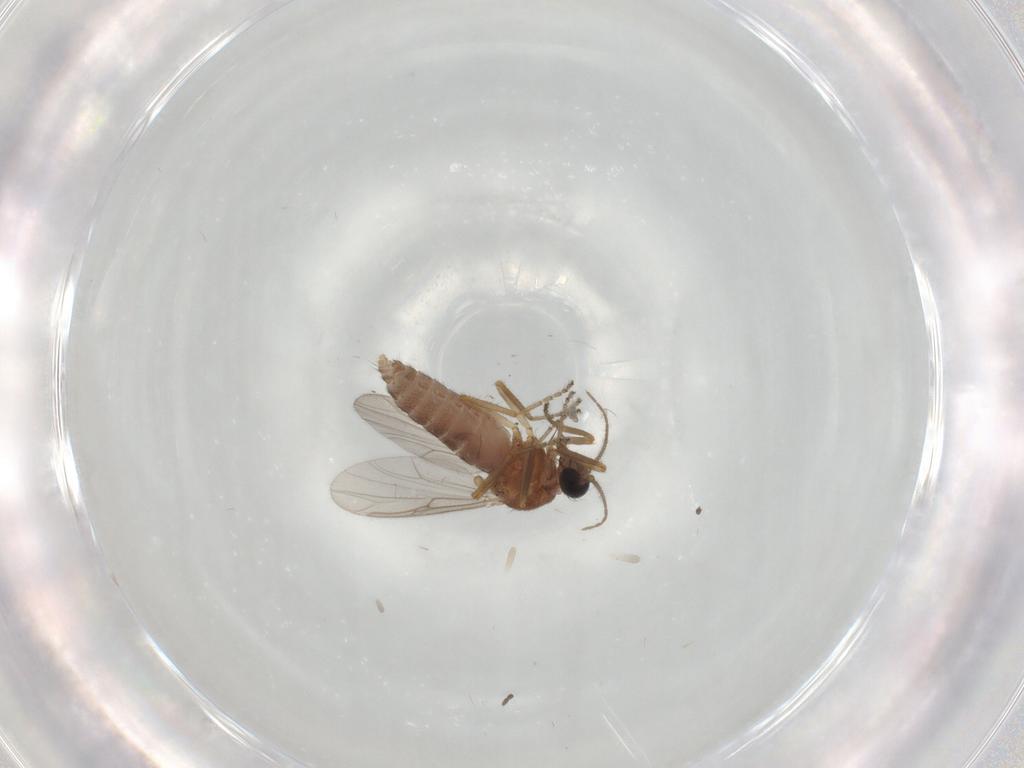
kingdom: Animalia
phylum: Arthropoda
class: Insecta
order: Diptera
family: Ceratopogonidae
